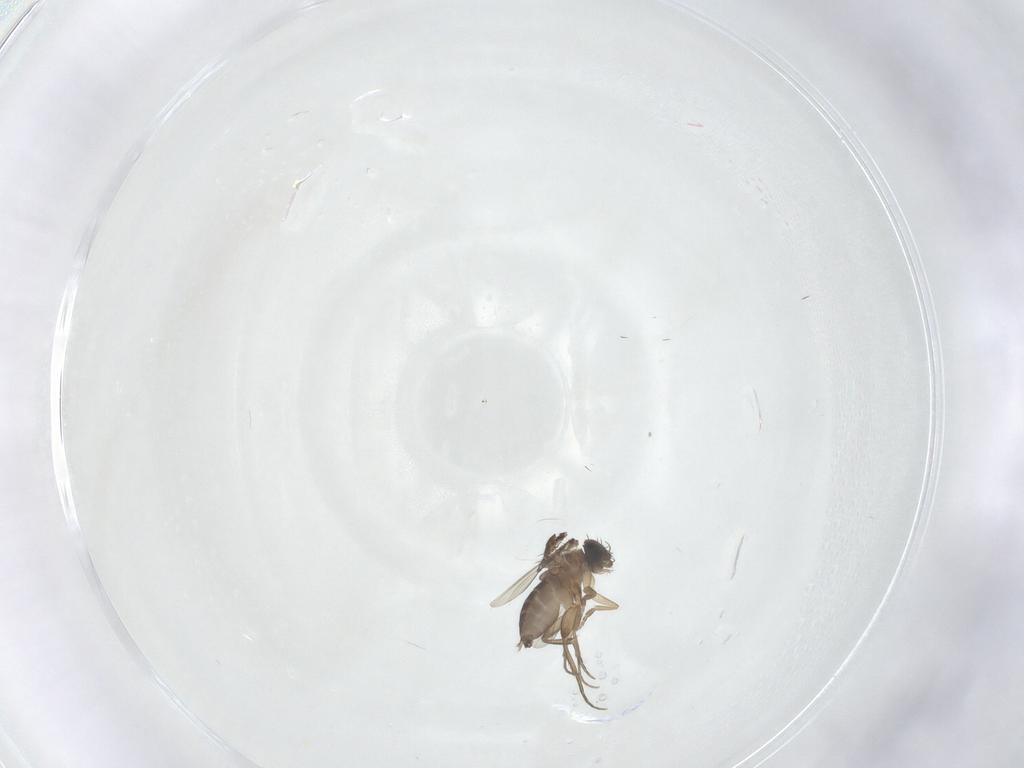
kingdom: Animalia
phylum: Arthropoda
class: Insecta
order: Diptera
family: Phoridae
